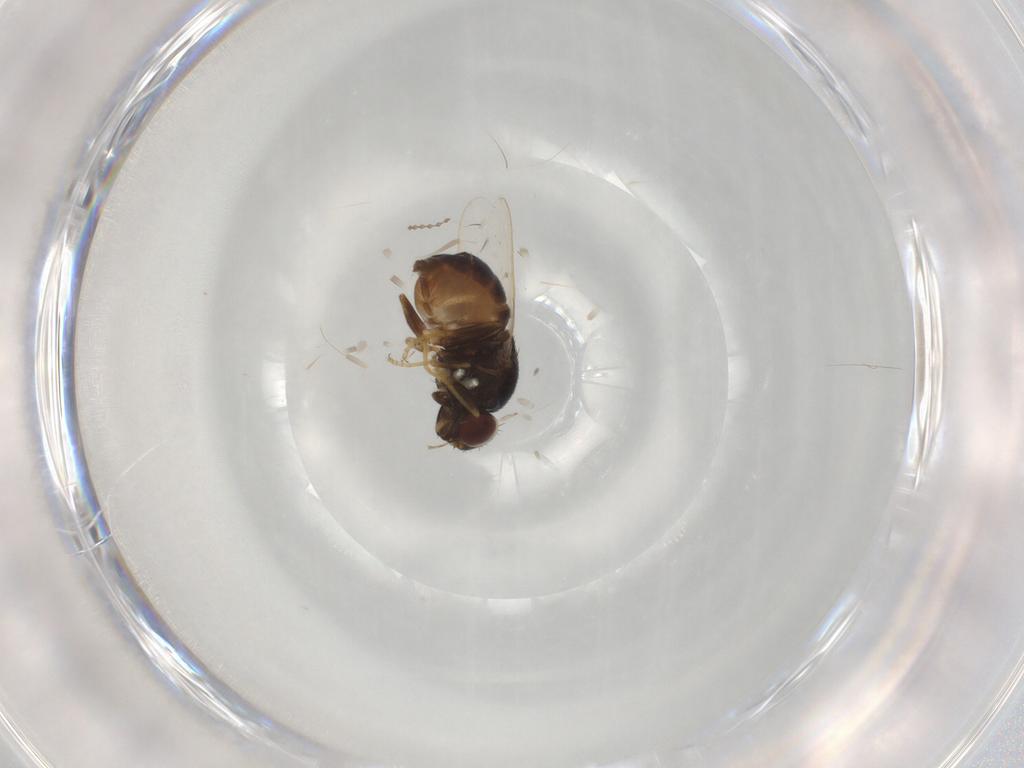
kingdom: Animalia
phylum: Arthropoda
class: Insecta
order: Diptera
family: Chloropidae
